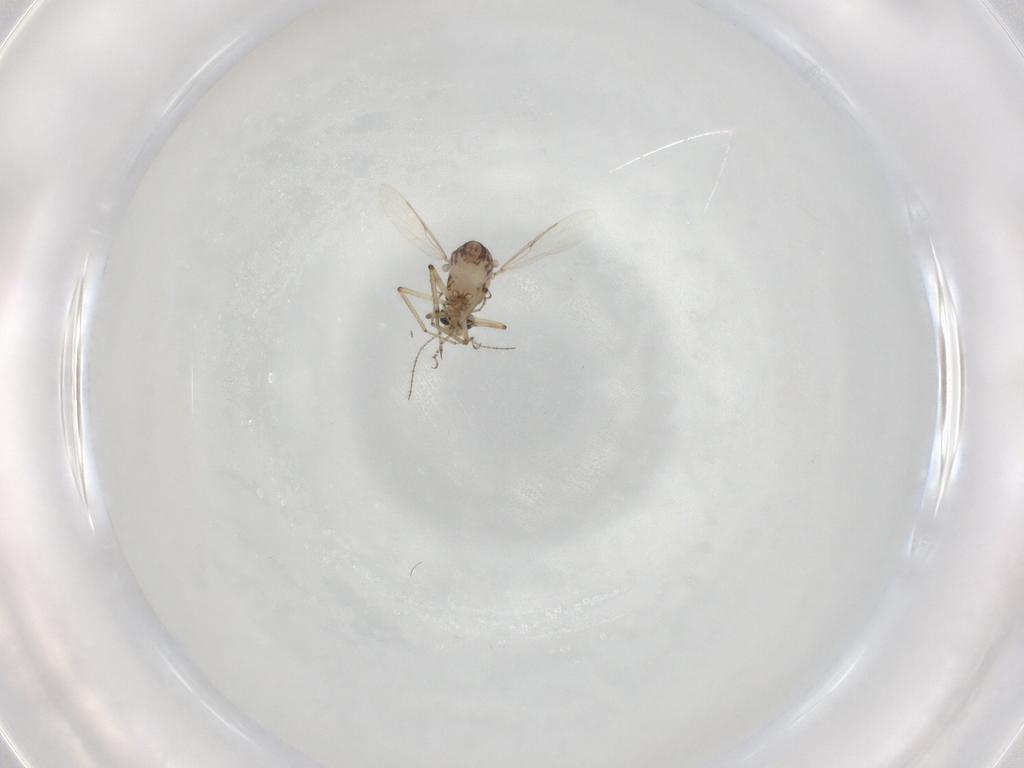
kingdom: Animalia
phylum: Arthropoda
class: Insecta
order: Diptera
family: Ceratopogonidae
